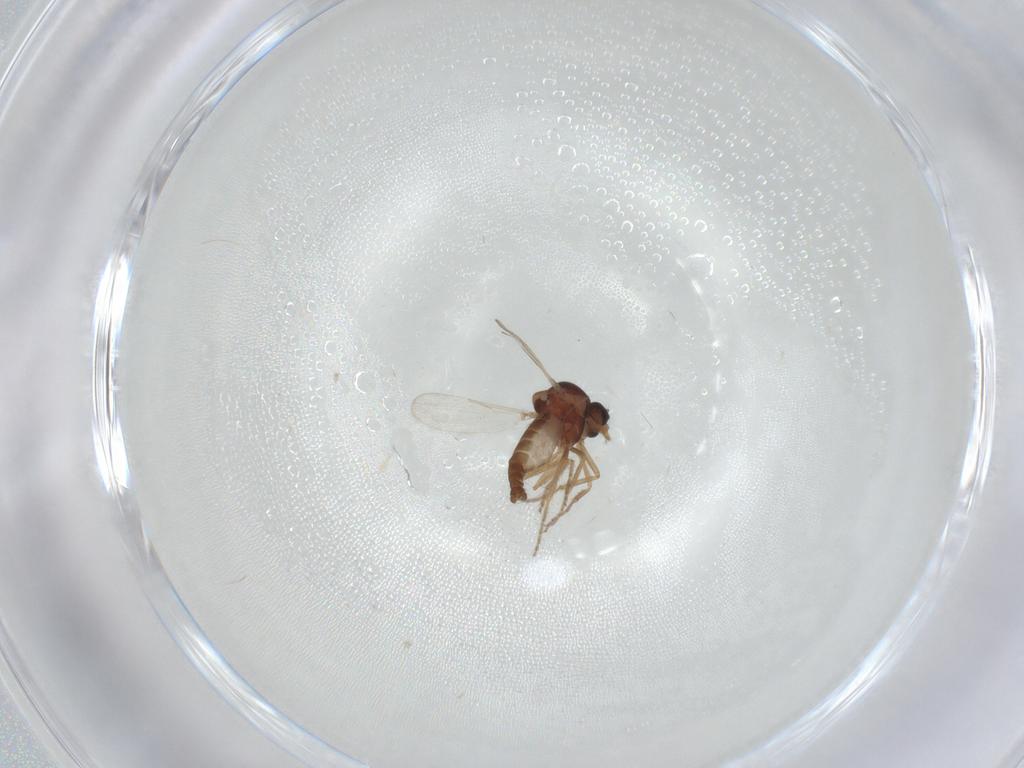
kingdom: Animalia
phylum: Arthropoda
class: Insecta
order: Diptera
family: Ceratopogonidae
